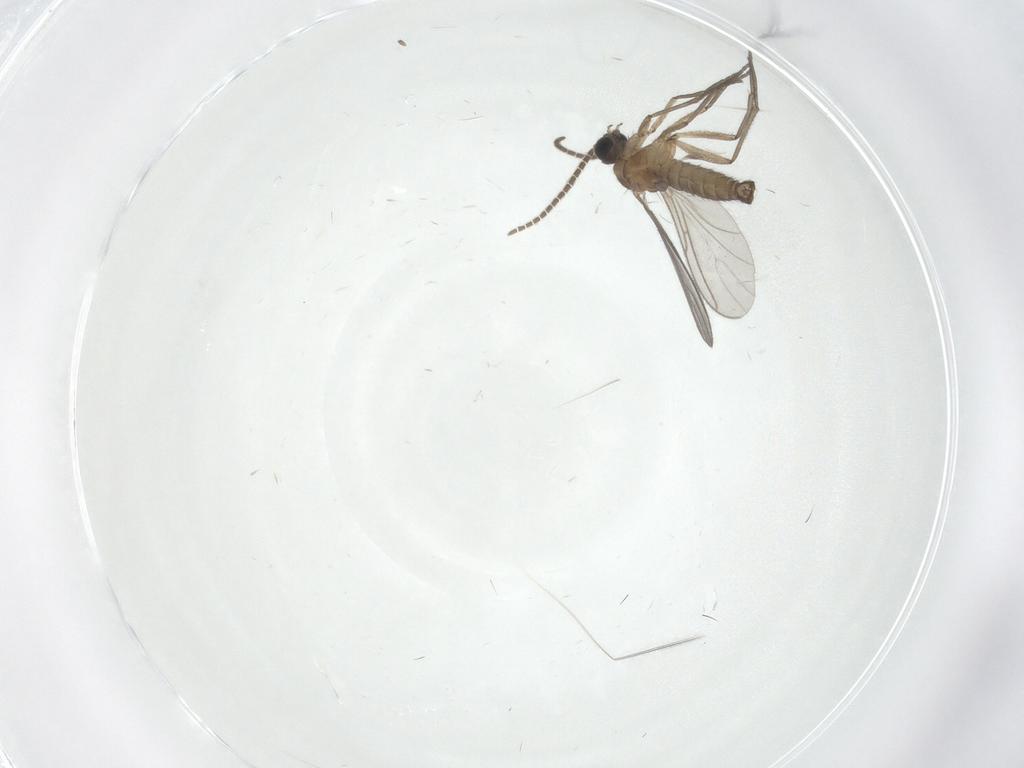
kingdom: Animalia
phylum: Arthropoda
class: Insecta
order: Diptera
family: Sciaridae
